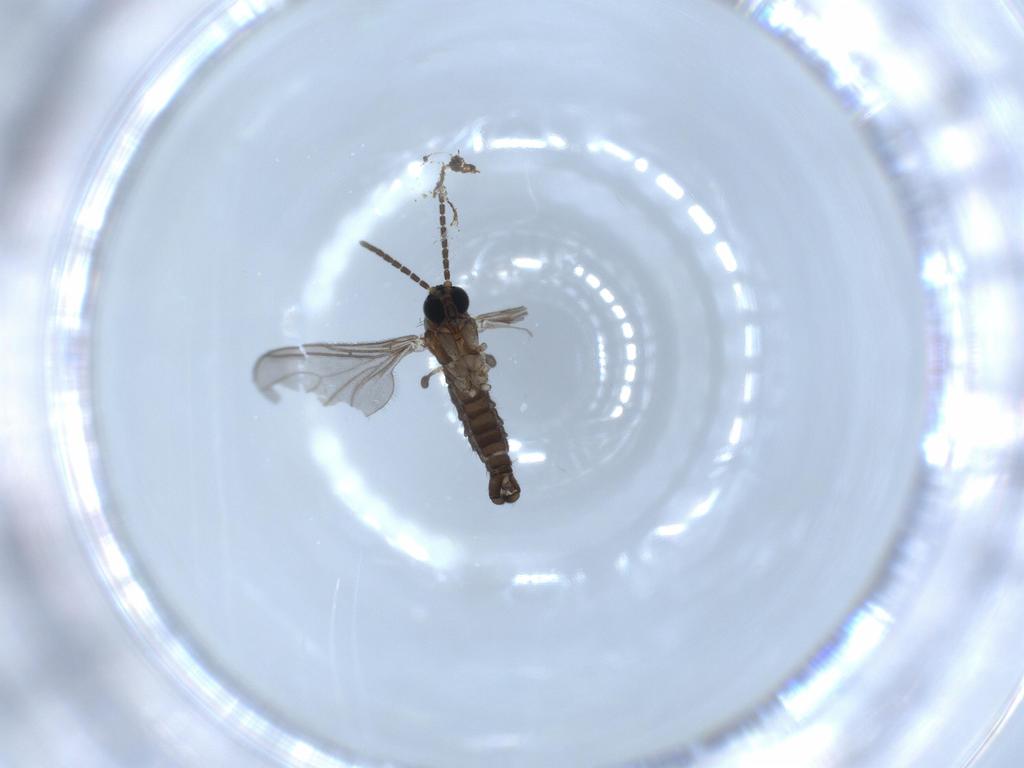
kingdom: Animalia
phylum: Arthropoda
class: Insecta
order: Diptera
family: Sciaridae
